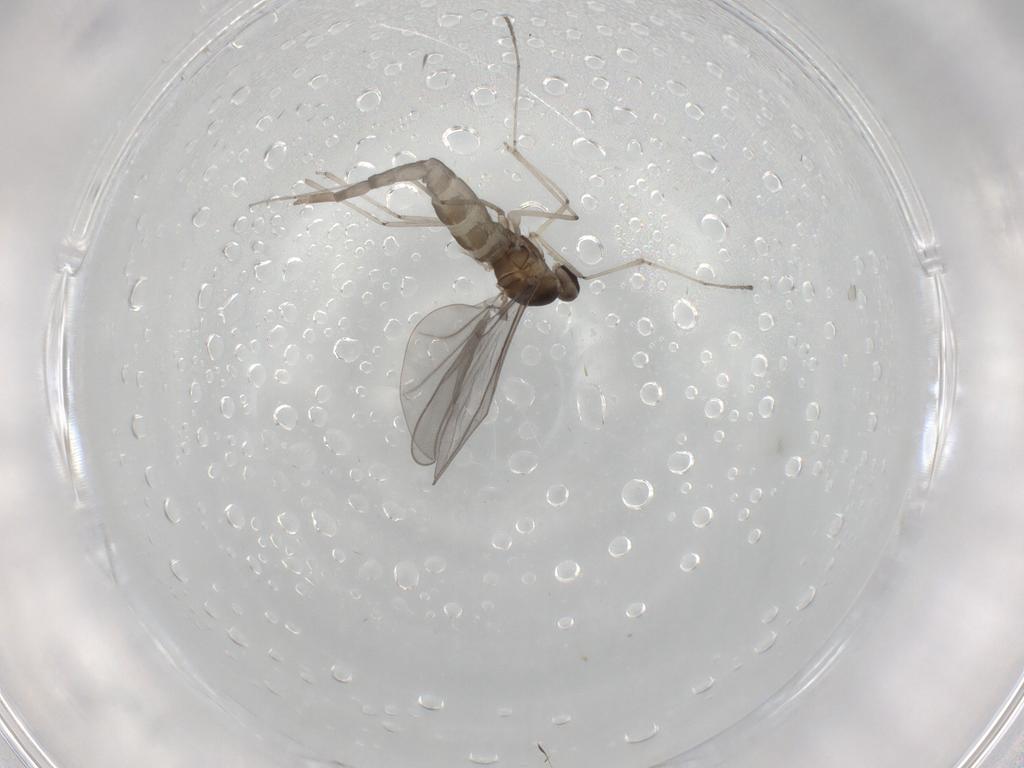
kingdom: Animalia
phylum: Arthropoda
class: Insecta
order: Diptera
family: Cecidomyiidae
